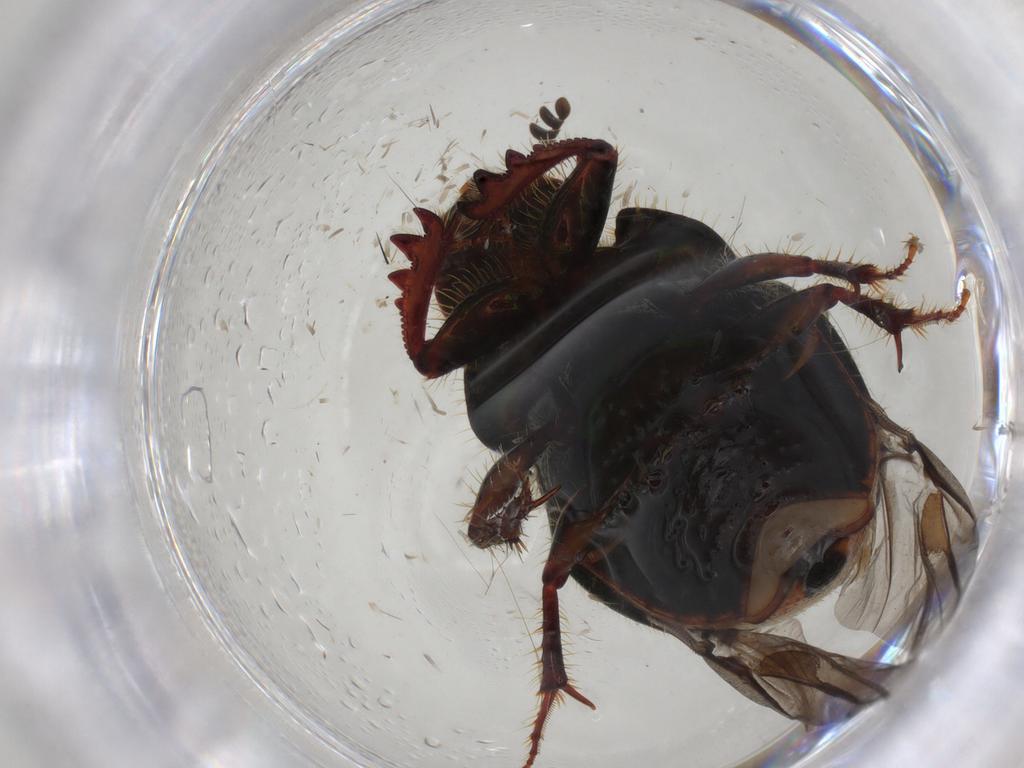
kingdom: Animalia
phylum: Arthropoda
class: Insecta
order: Coleoptera
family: Scarabaeidae
